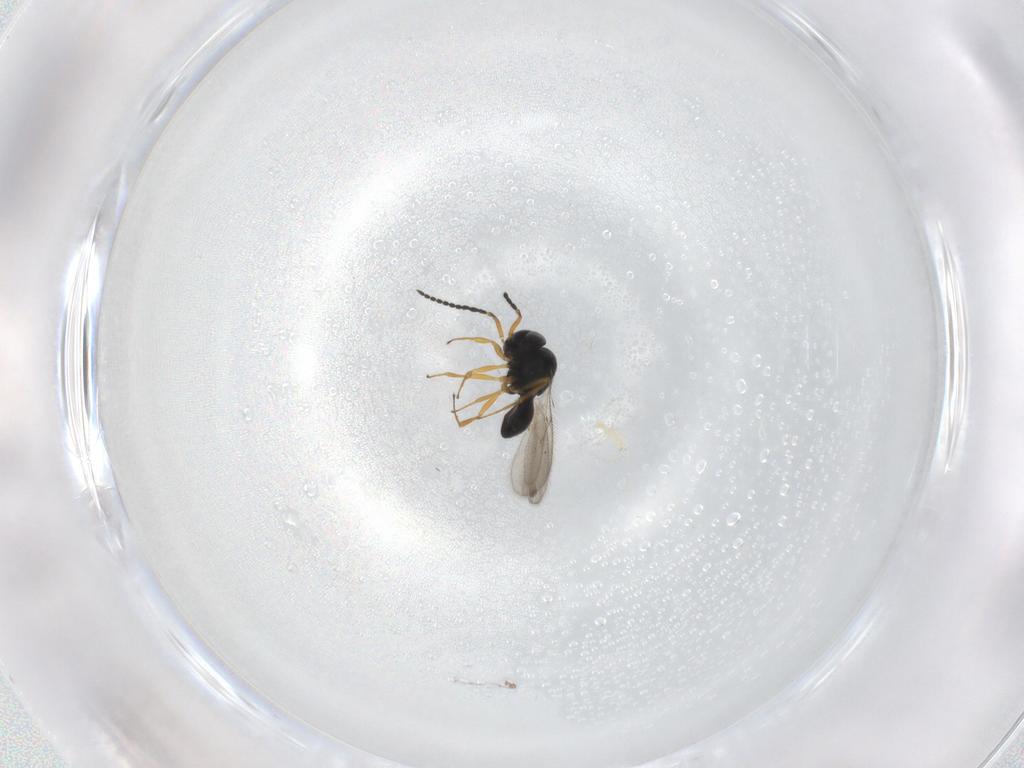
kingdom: Animalia
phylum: Arthropoda
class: Insecta
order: Hymenoptera
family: Scelionidae
